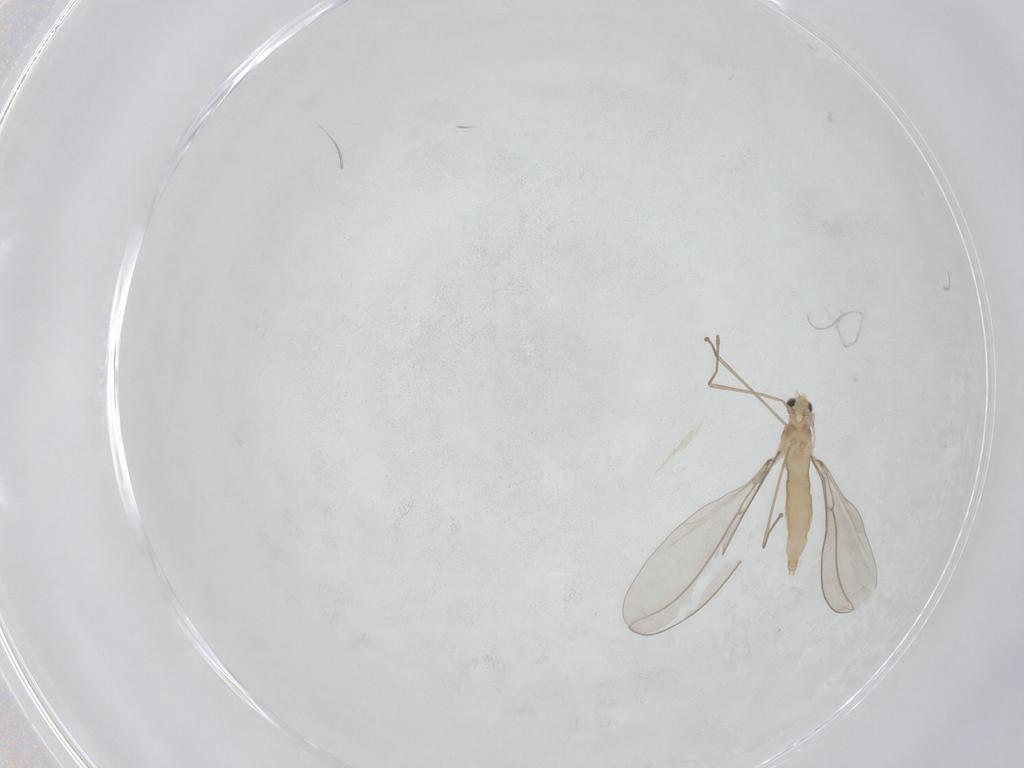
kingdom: Animalia
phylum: Arthropoda
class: Insecta
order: Diptera
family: Cecidomyiidae
